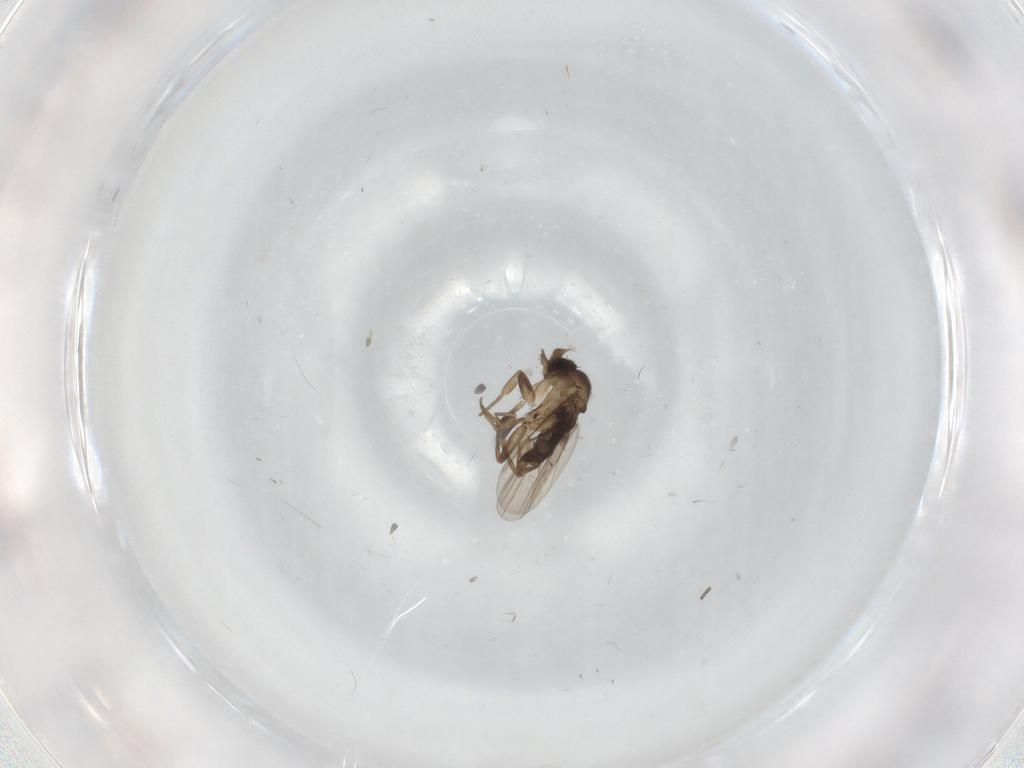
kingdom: Animalia
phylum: Arthropoda
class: Insecta
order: Diptera
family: Phoridae
